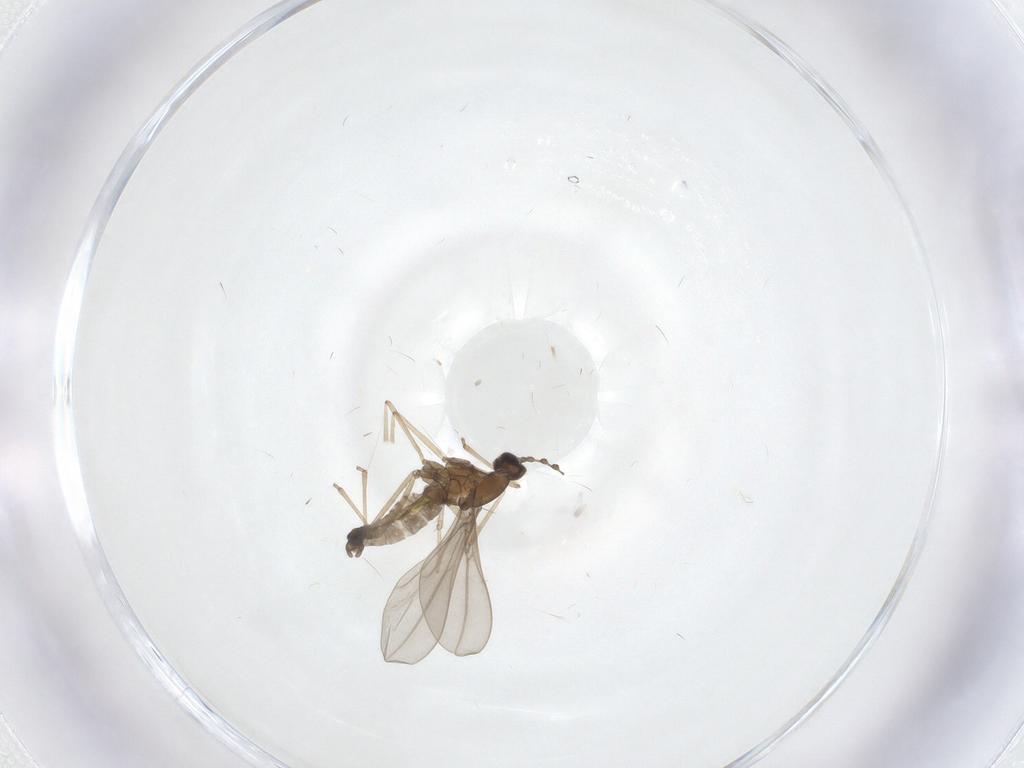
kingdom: Animalia
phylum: Arthropoda
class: Insecta
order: Diptera
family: Psychodidae
